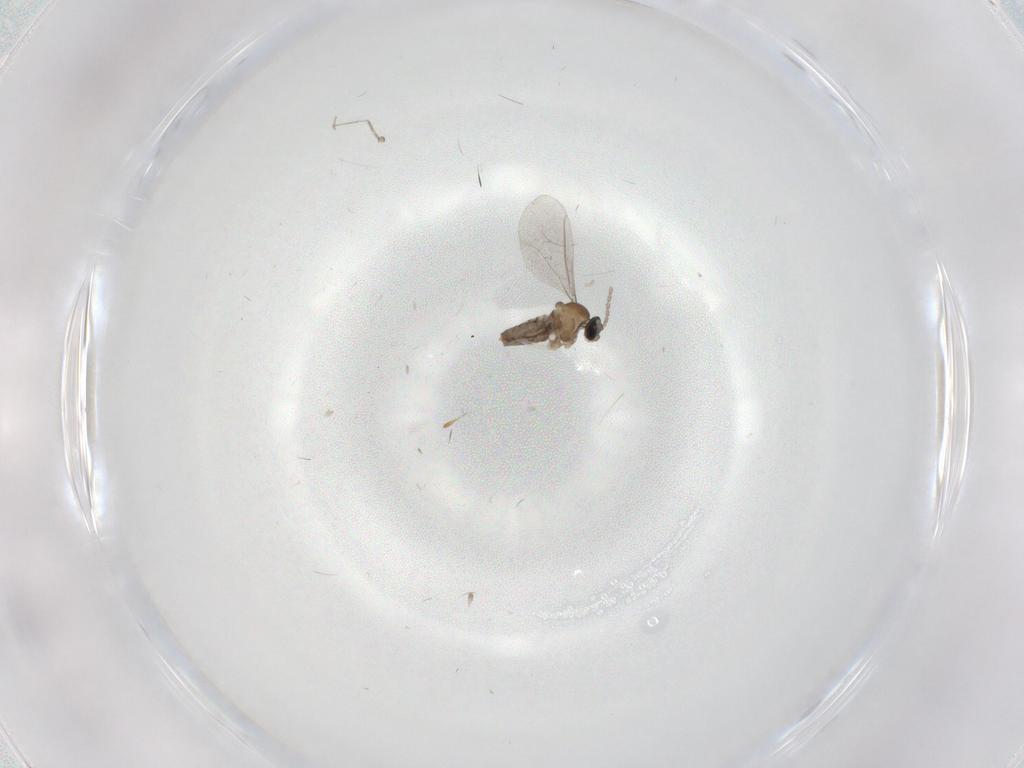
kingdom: Animalia
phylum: Arthropoda
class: Insecta
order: Diptera
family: Cecidomyiidae
